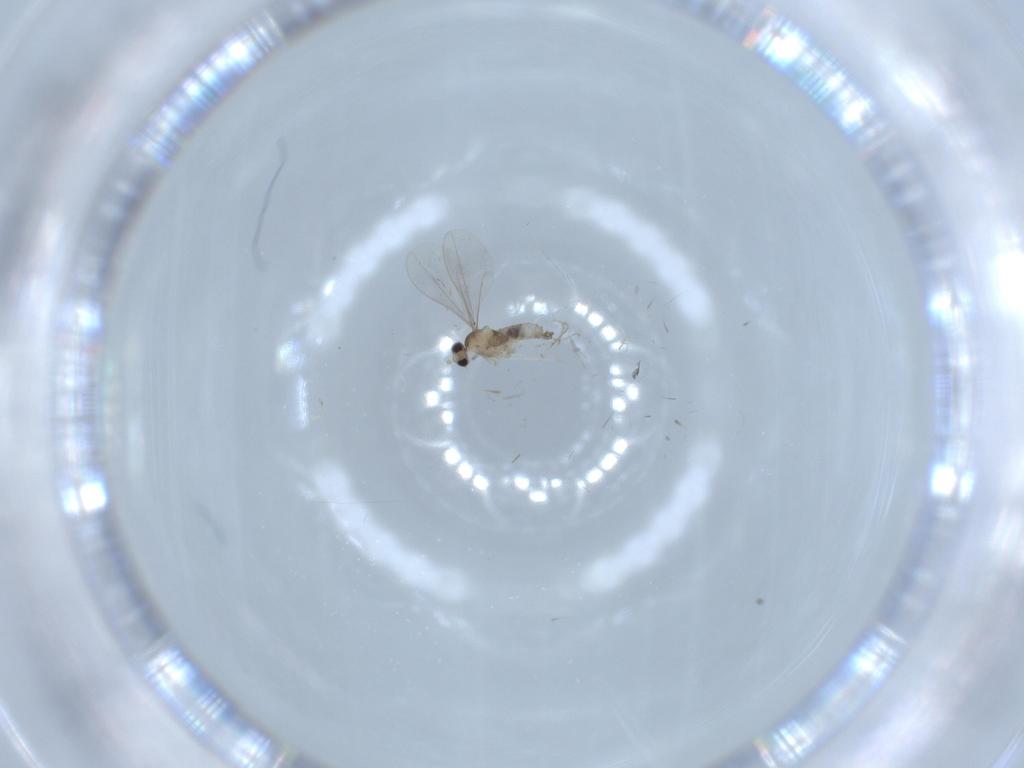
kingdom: Animalia
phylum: Arthropoda
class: Insecta
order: Diptera
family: Cecidomyiidae
